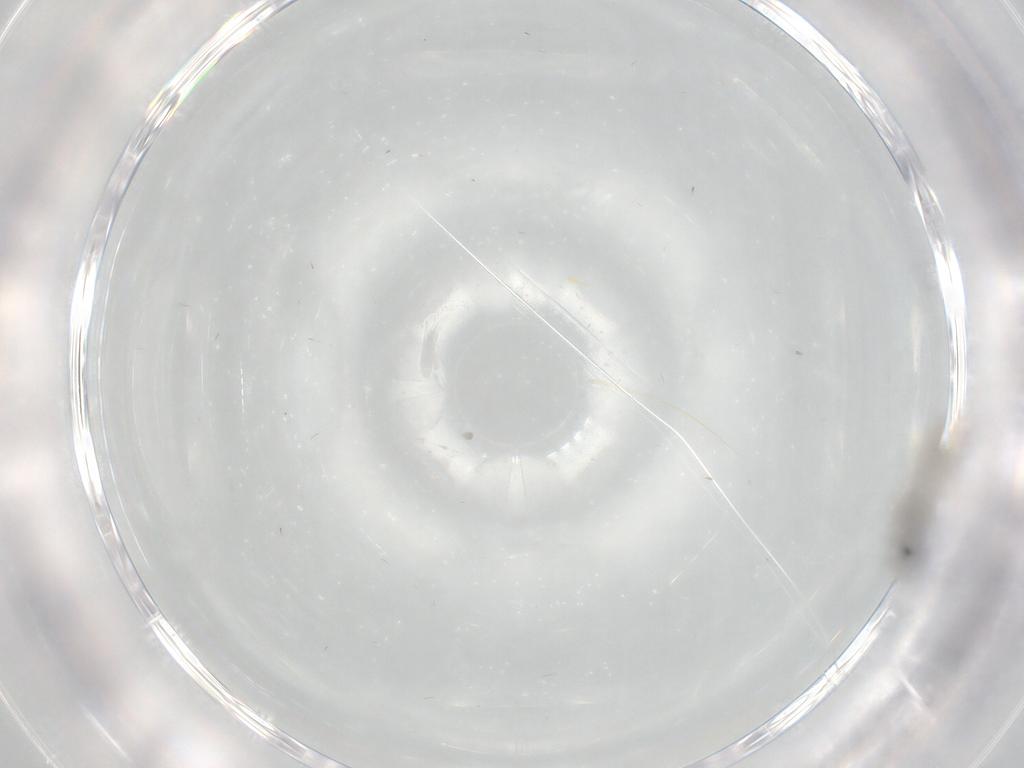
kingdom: Animalia
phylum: Arthropoda
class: Insecta
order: Diptera
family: Cecidomyiidae
